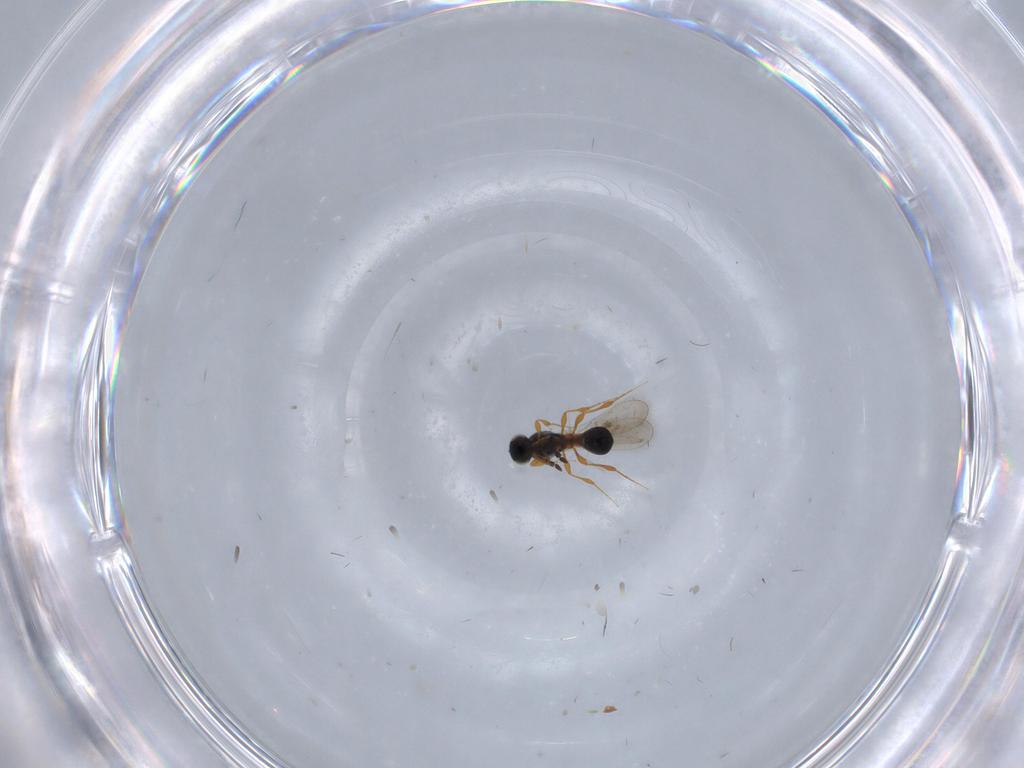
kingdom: Animalia
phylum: Arthropoda
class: Insecta
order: Hymenoptera
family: Platygastridae
